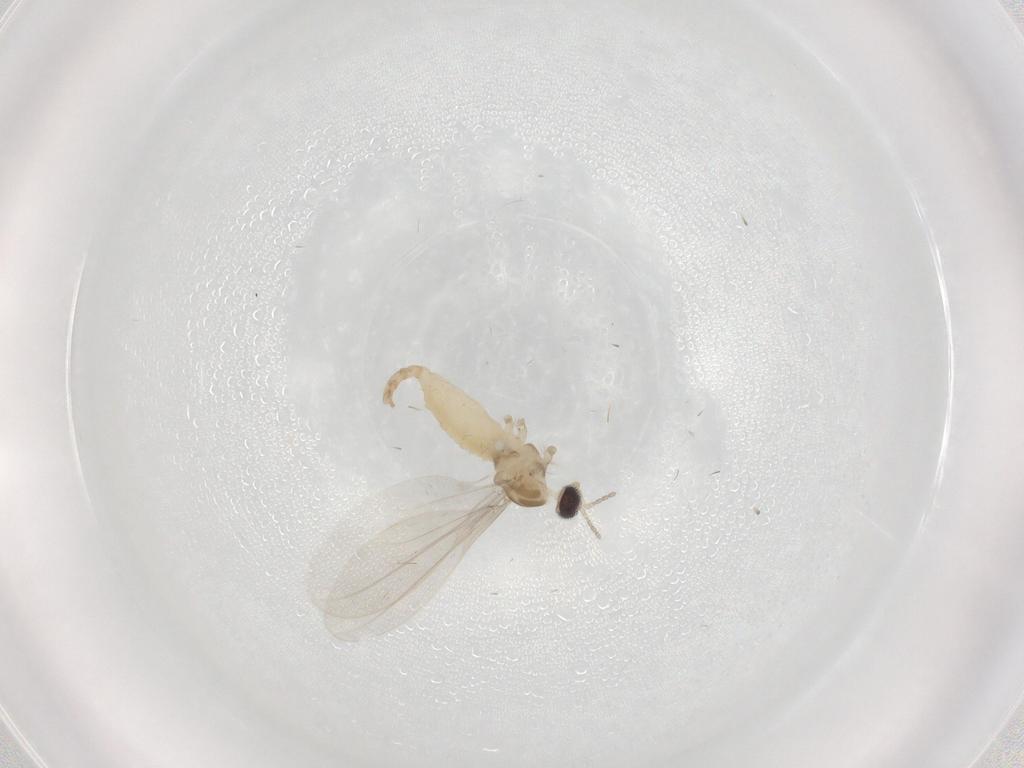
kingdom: Animalia
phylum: Arthropoda
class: Insecta
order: Diptera
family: Cecidomyiidae
